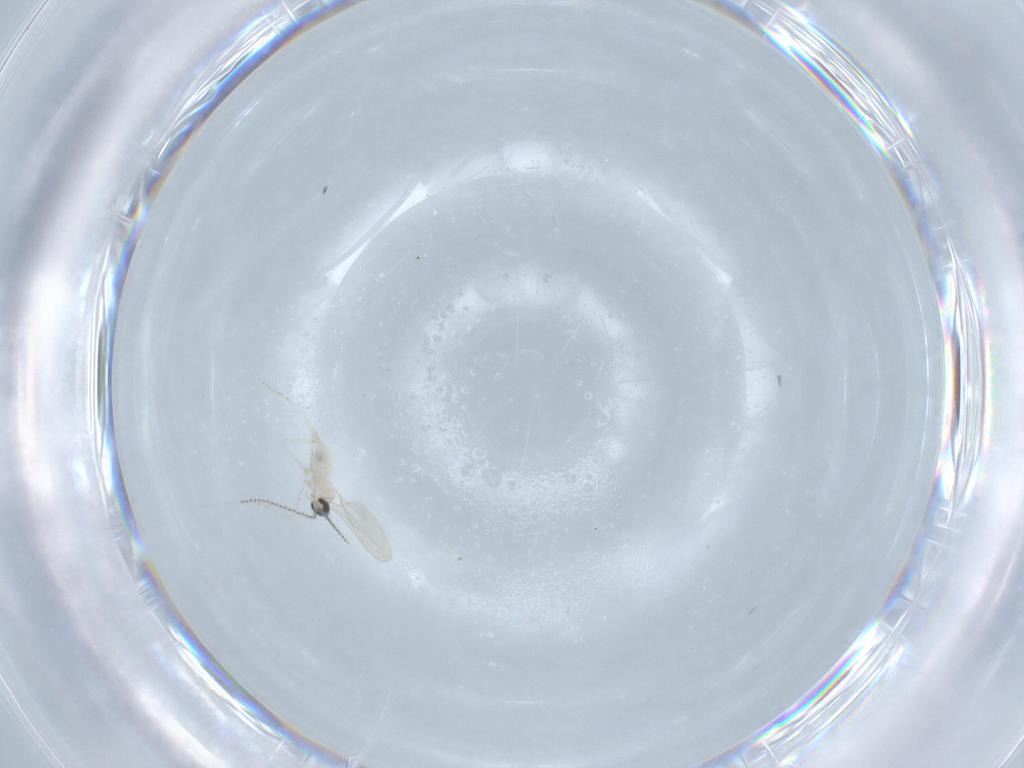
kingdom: Animalia
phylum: Arthropoda
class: Insecta
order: Diptera
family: Cecidomyiidae
